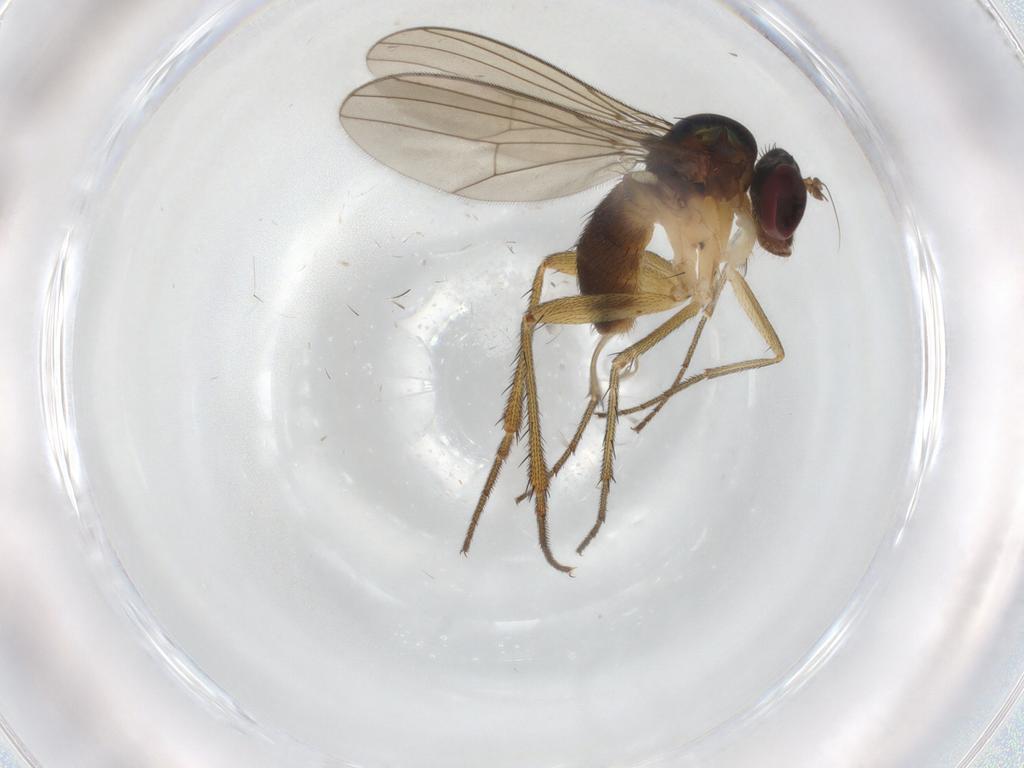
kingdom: Animalia
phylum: Arthropoda
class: Insecta
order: Diptera
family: Dolichopodidae
